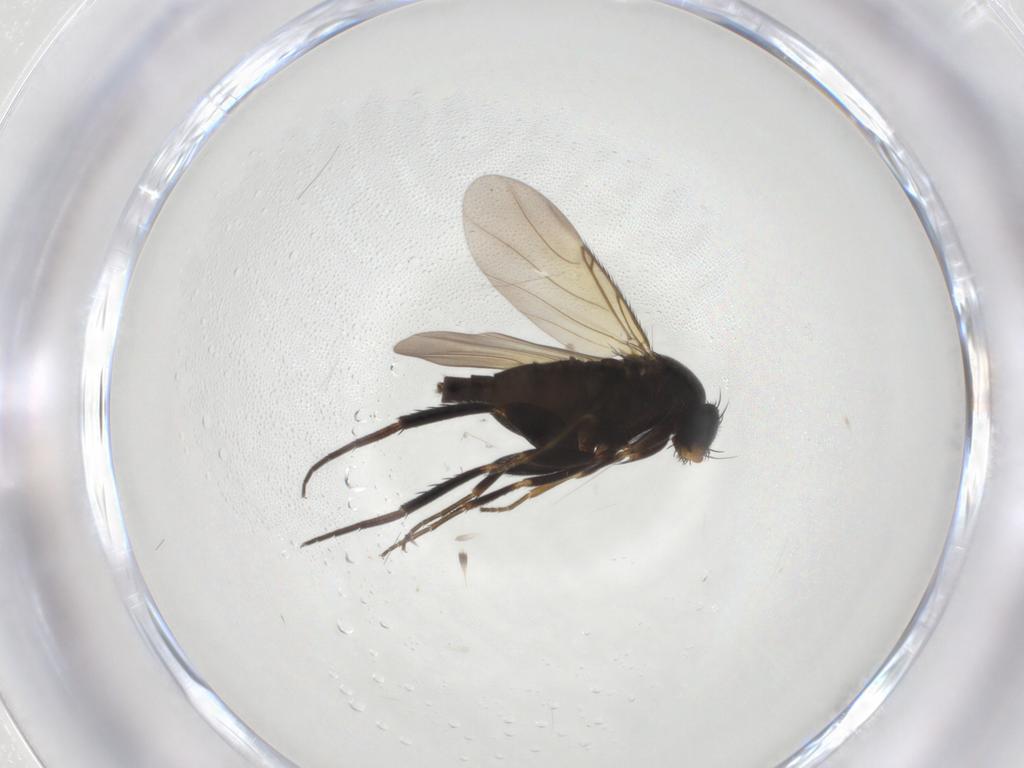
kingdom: Animalia
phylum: Arthropoda
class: Insecta
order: Diptera
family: Phoridae
